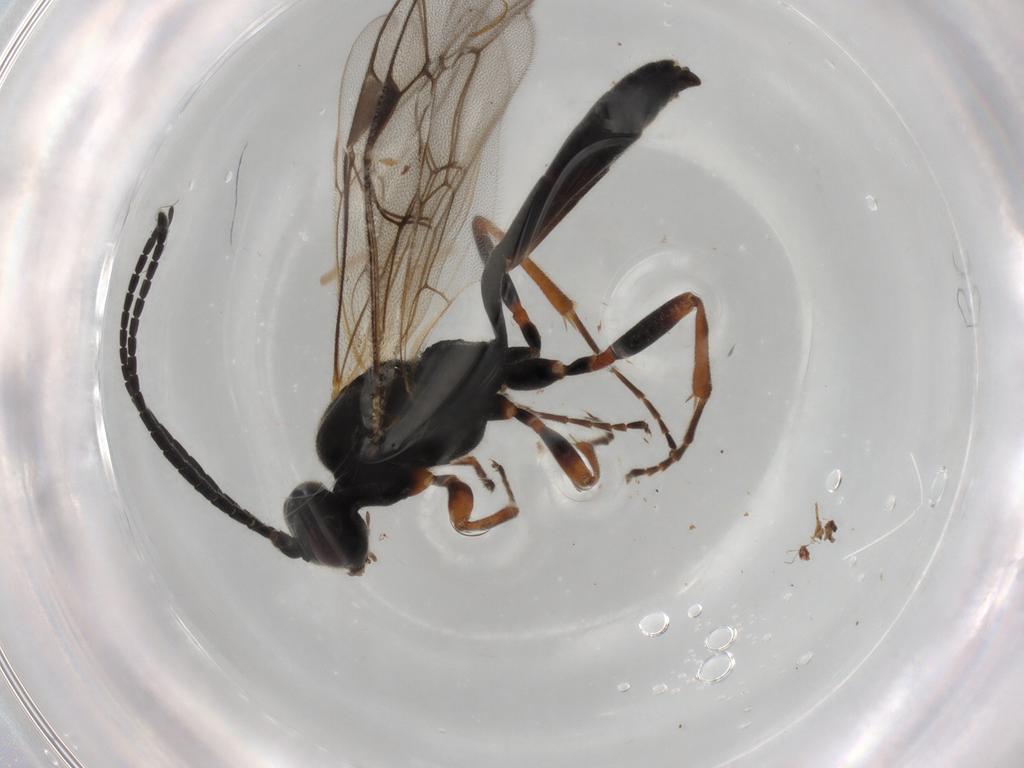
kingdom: Animalia
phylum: Arthropoda
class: Insecta
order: Hymenoptera
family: Ichneumonidae
